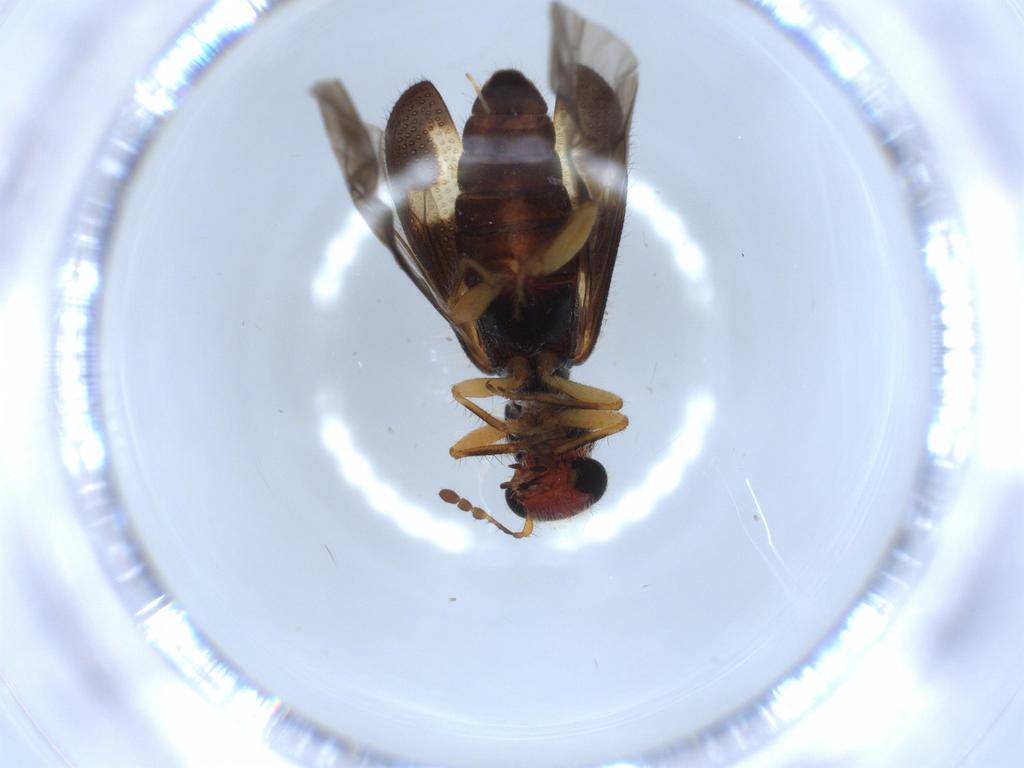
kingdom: Animalia
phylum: Arthropoda
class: Insecta
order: Coleoptera
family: Cleridae
